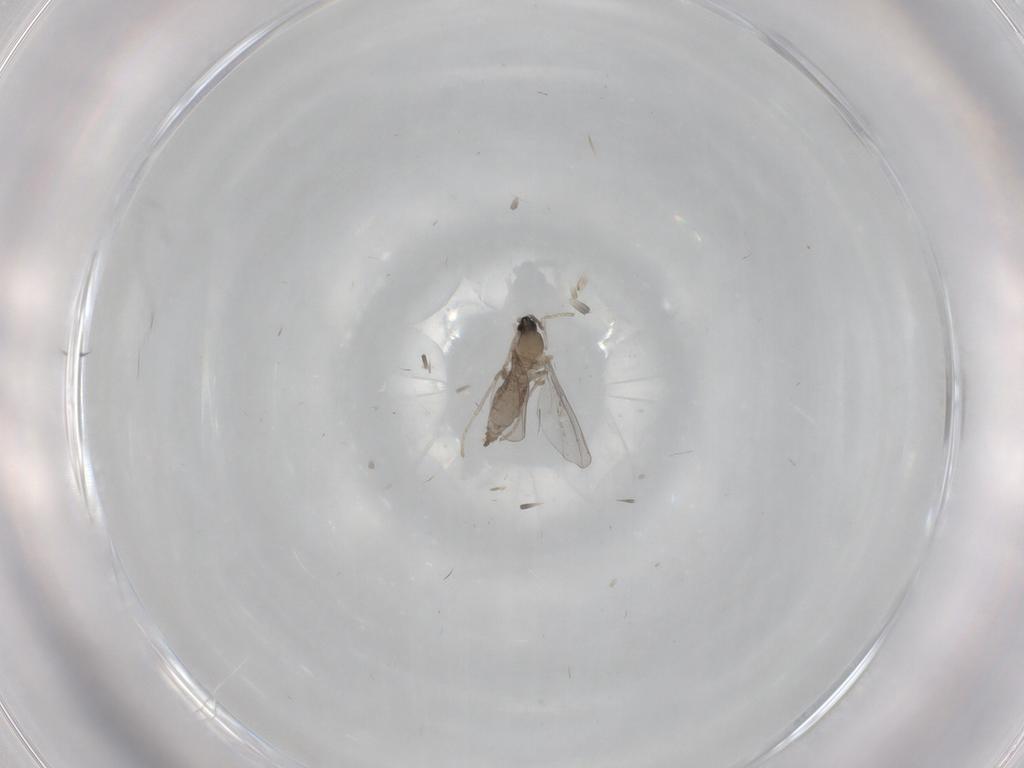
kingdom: Animalia
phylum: Arthropoda
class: Insecta
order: Diptera
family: Cecidomyiidae
